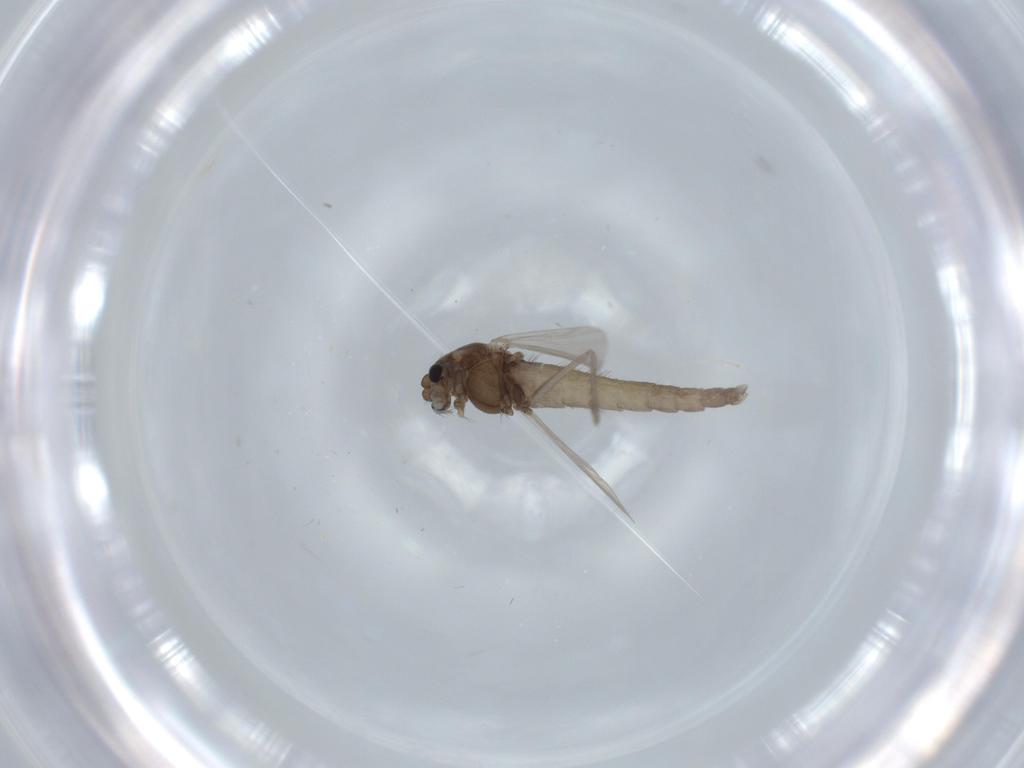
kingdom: Animalia
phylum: Arthropoda
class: Insecta
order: Diptera
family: Chironomidae
